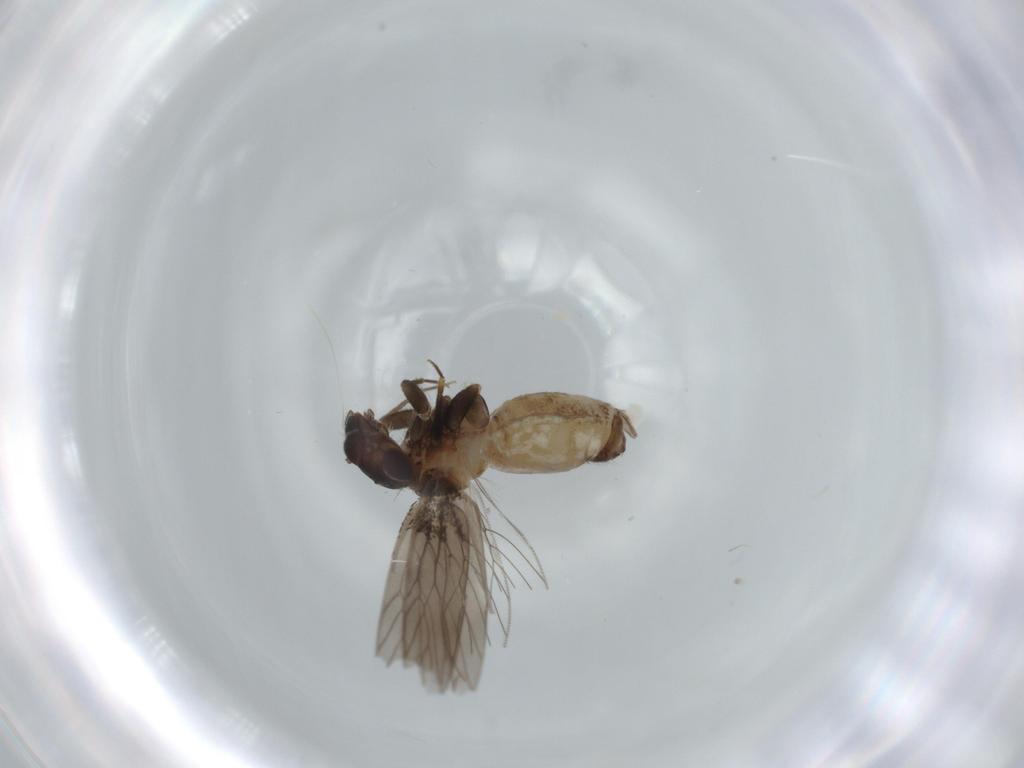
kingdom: Animalia
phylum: Arthropoda
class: Insecta
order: Psocodea
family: Lepidopsocidae
